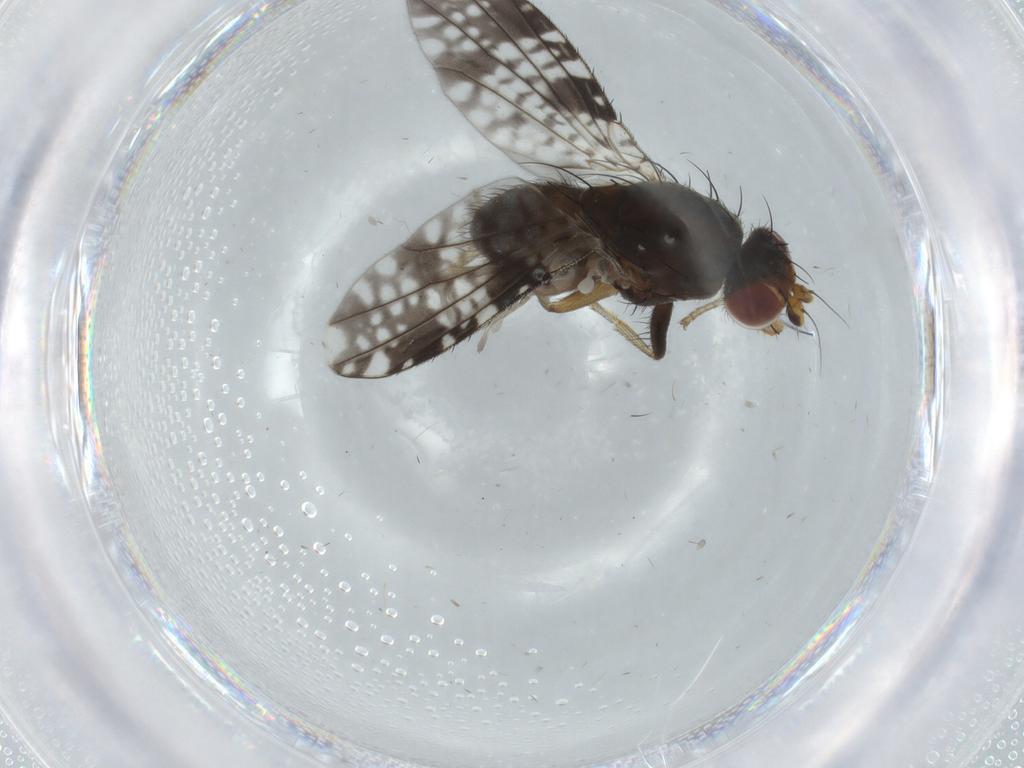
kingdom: Animalia
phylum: Arthropoda
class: Insecta
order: Diptera
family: Tephritidae
